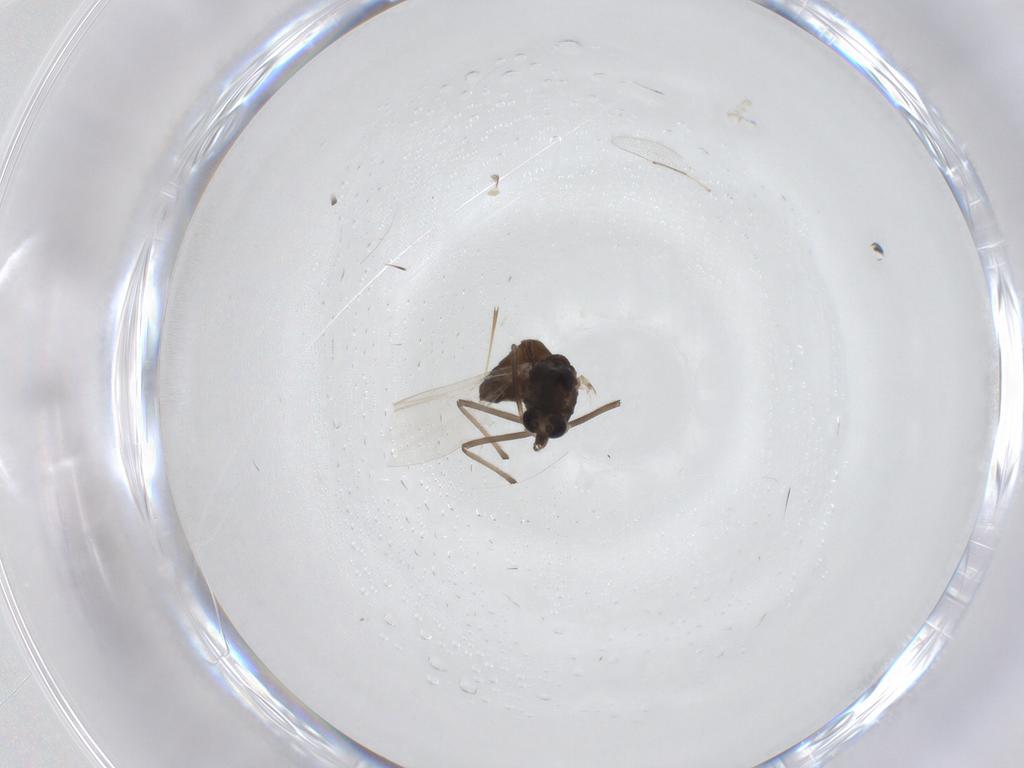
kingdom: Animalia
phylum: Arthropoda
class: Insecta
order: Diptera
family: Chironomidae
